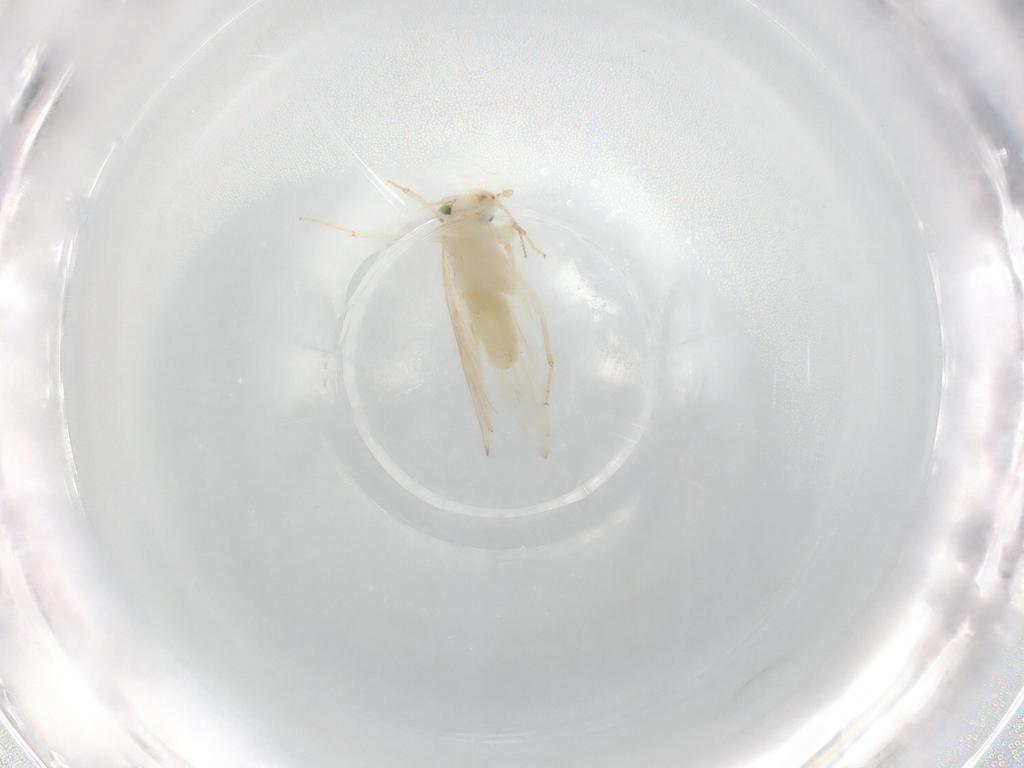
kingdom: Animalia
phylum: Arthropoda
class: Insecta
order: Psocodea
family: Lepidopsocidae
